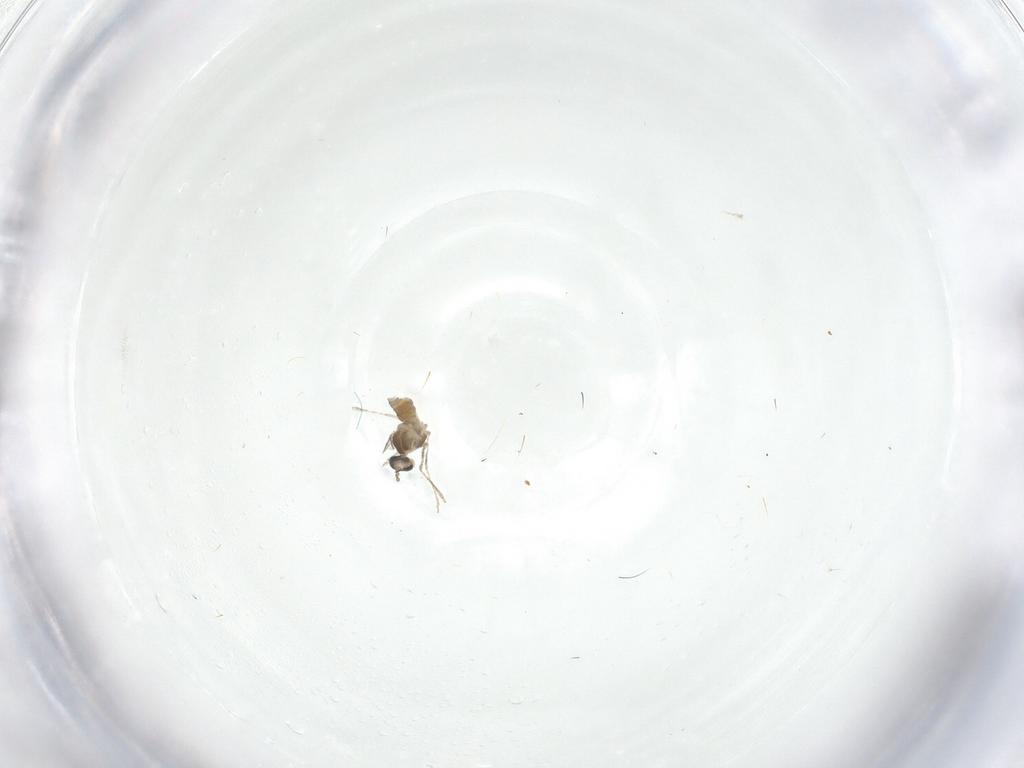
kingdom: Animalia
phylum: Arthropoda
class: Insecta
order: Diptera
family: Cecidomyiidae
